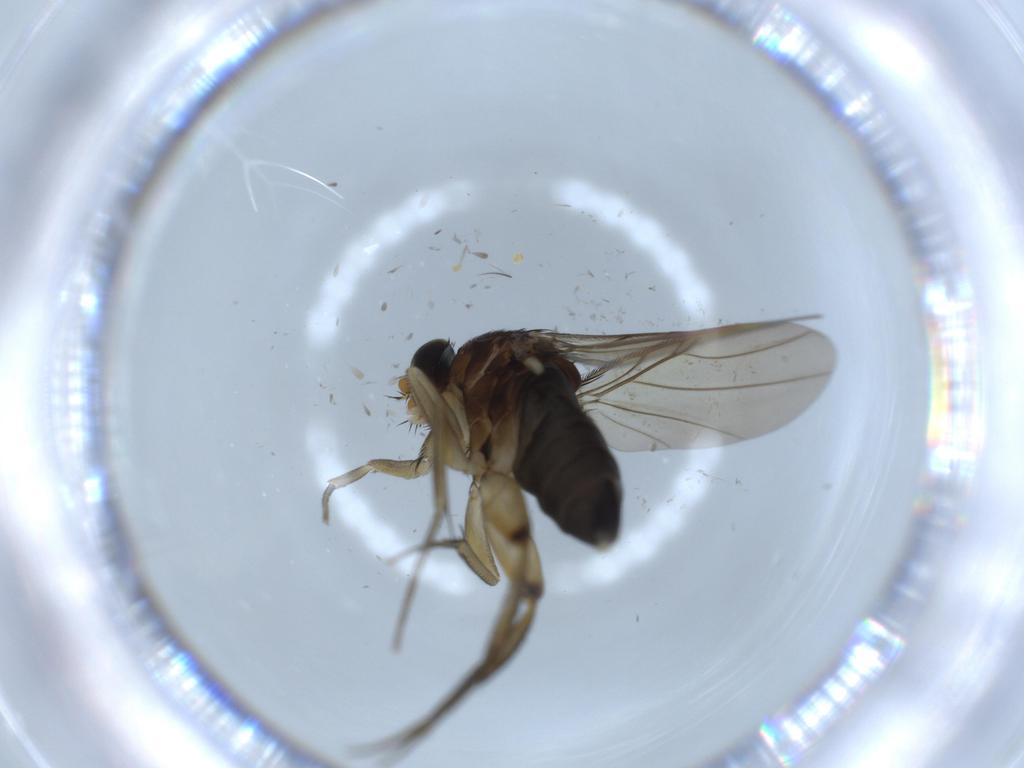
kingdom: Animalia
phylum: Arthropoda
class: Insecta
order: Diptera
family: Phoridae
